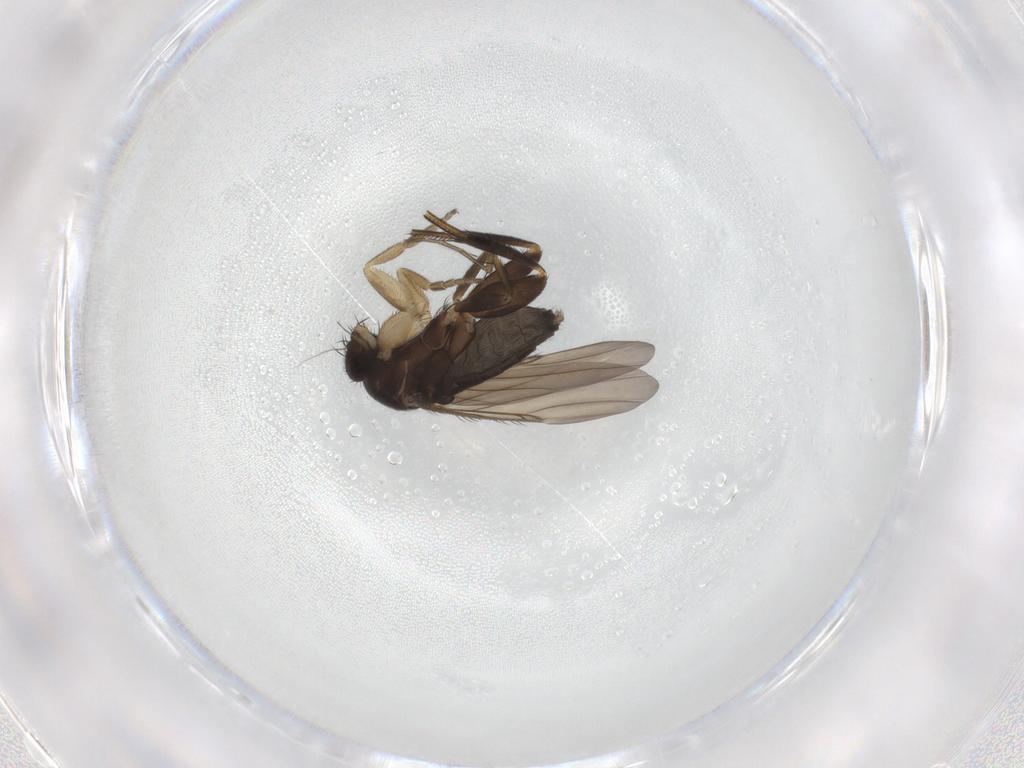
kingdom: Animalia
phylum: Arthropoda
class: Insecta
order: Diptera
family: Phoridae
